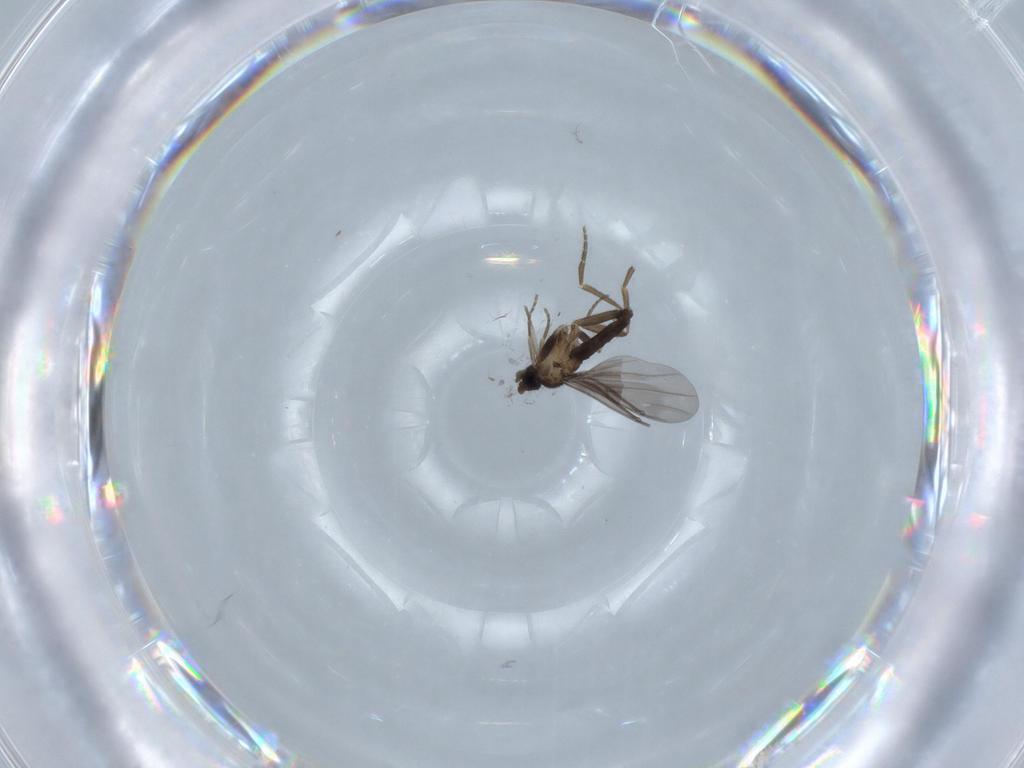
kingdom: Animalia
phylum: Arthropoda
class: Insecta
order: Diptera
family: Phoridae
